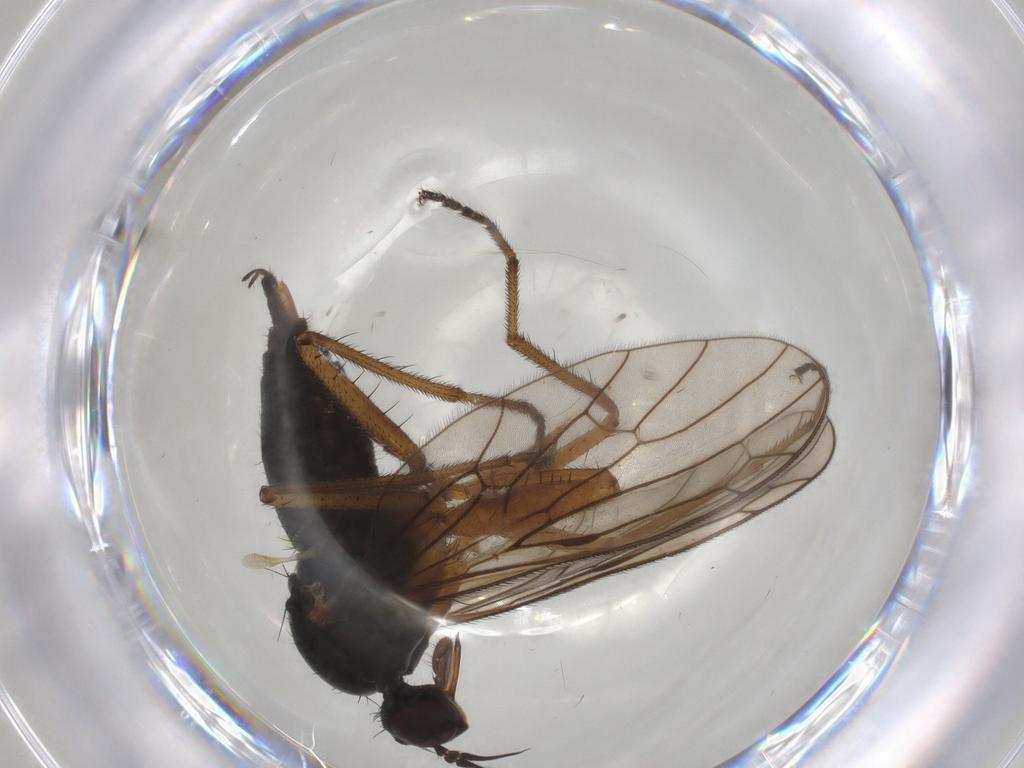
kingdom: Animalia
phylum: Arthropoda
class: Insecta
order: Diptera
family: Empididae
